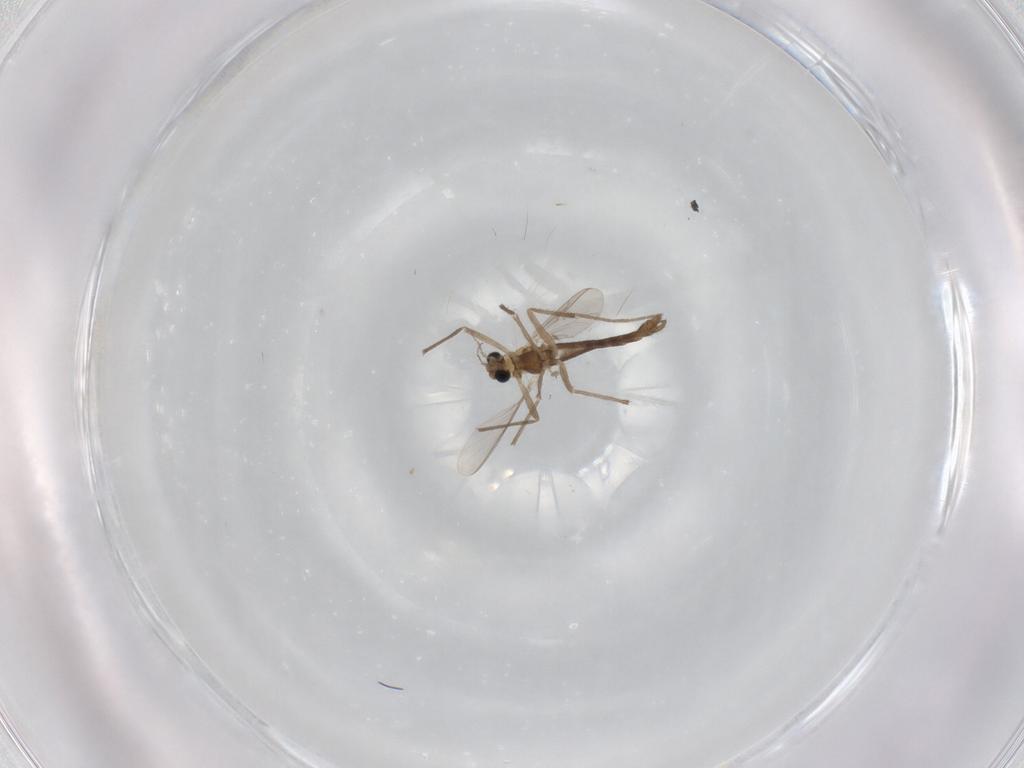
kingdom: Animalia
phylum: Arthropoda
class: Insecta
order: Diptera
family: Chironomidae
